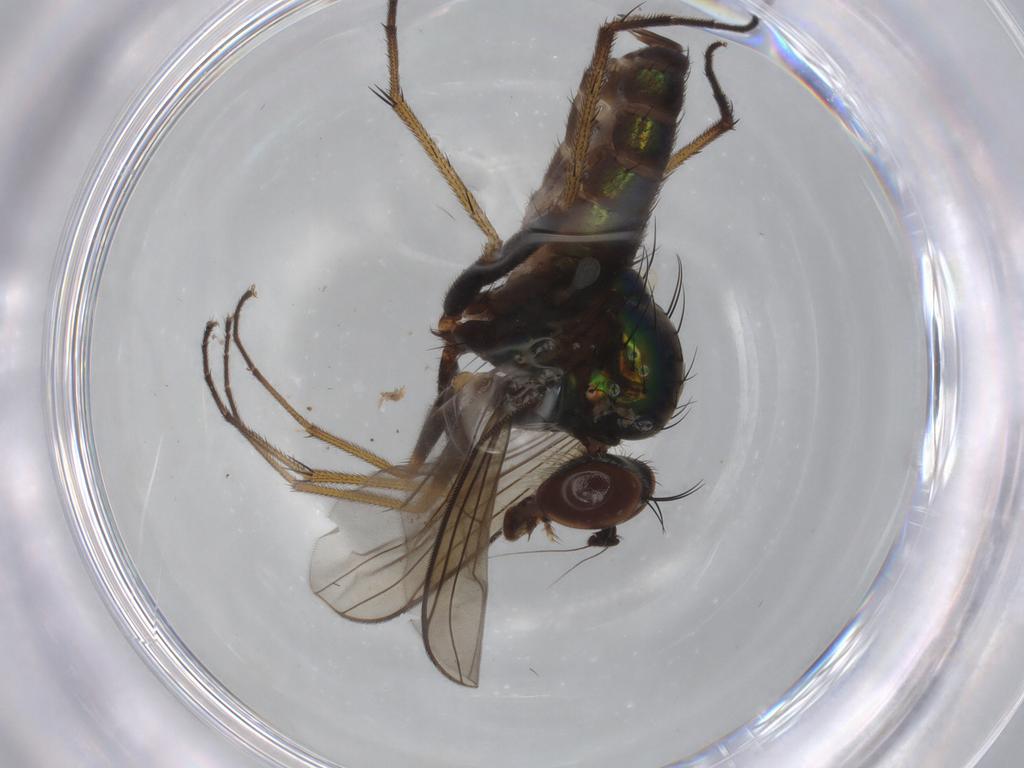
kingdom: Animalia
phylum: Arthropoda
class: Insecta
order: Diptera
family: Dolichopodidae
